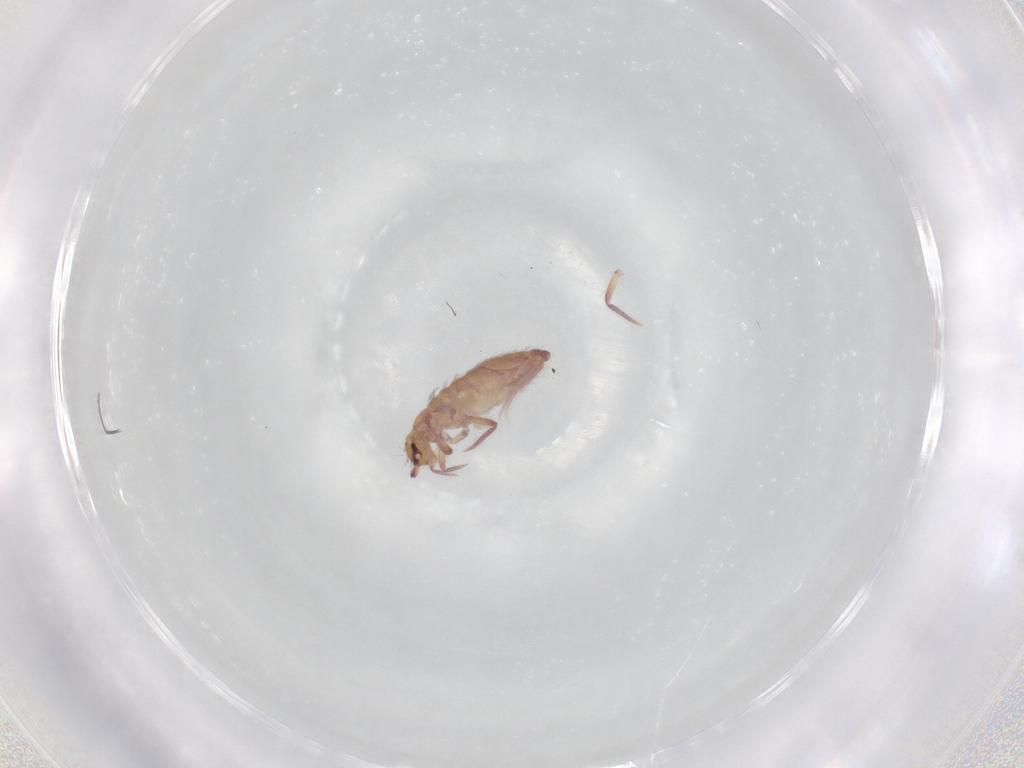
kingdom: Animalia
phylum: Arthropoda
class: Collembola
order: Entomobryomorpha
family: Entomobryidae
